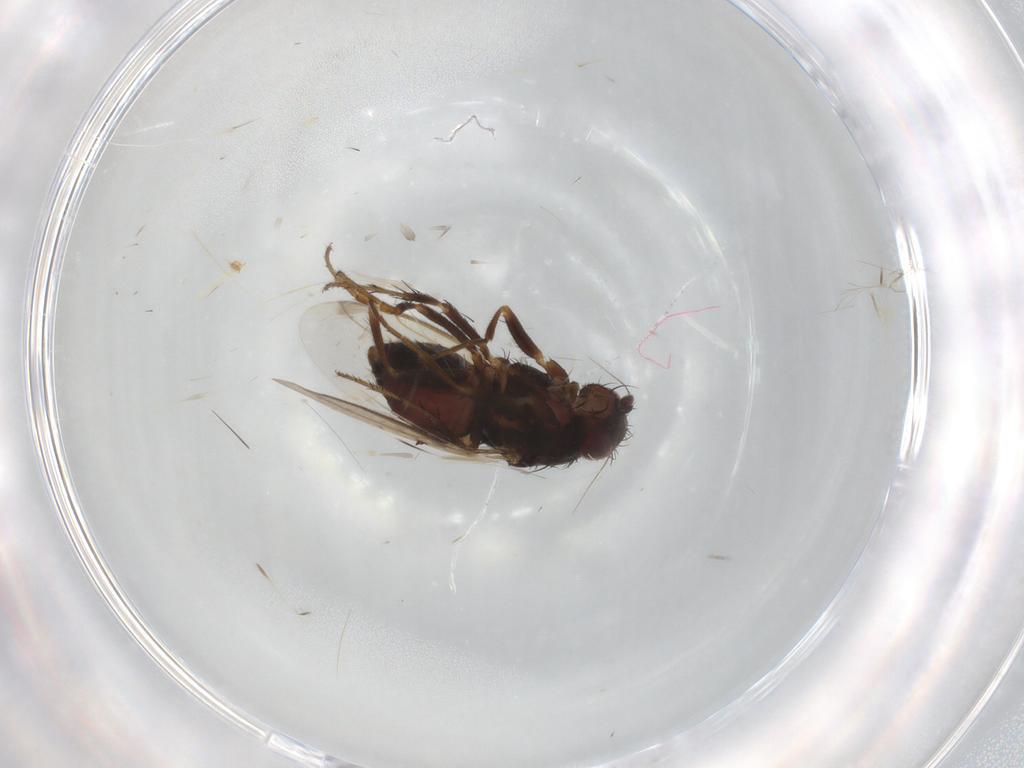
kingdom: Animalia
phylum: Arthropoda
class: Insecta
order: Diptera
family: Sphaeroceridae
